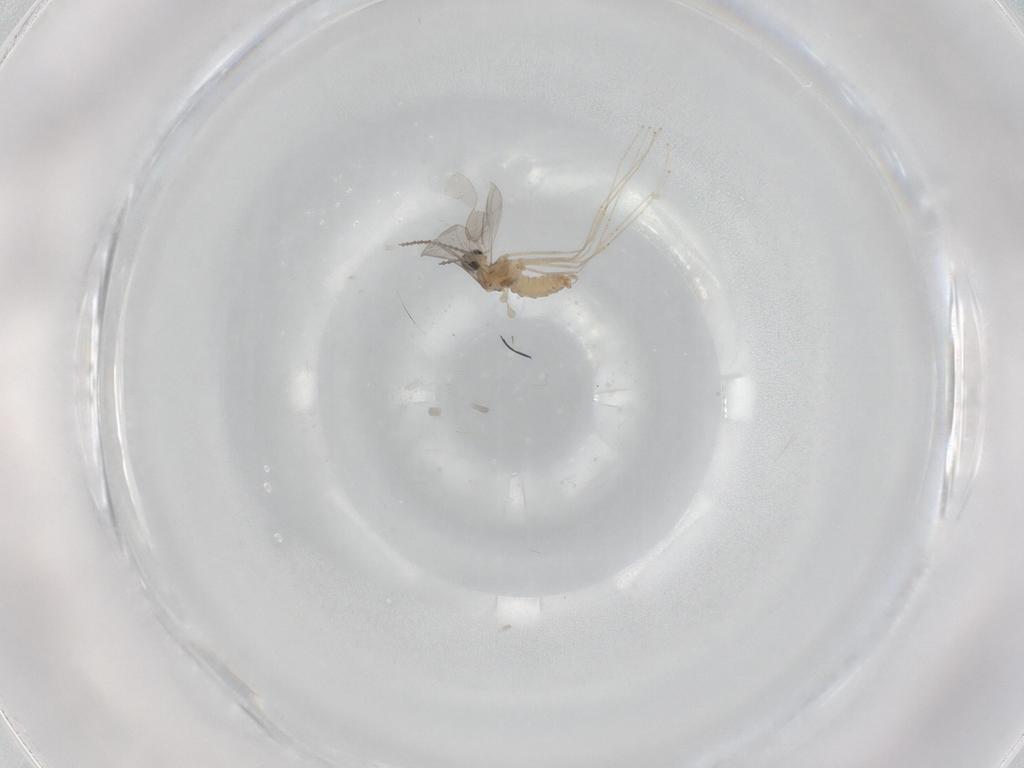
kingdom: Animalia
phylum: Arthropoda
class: Insecta
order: Diptera
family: Cecidomyiidae
